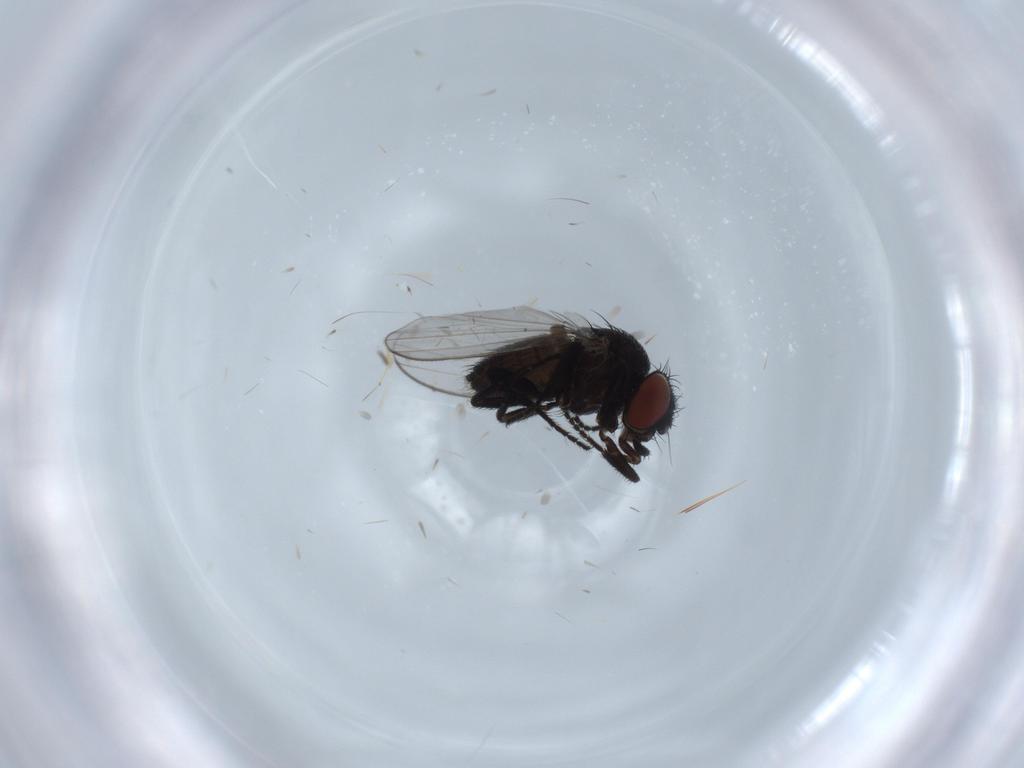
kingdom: Animalia
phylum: Arthropoda
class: Insecta
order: Diptera
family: Milichiidae
